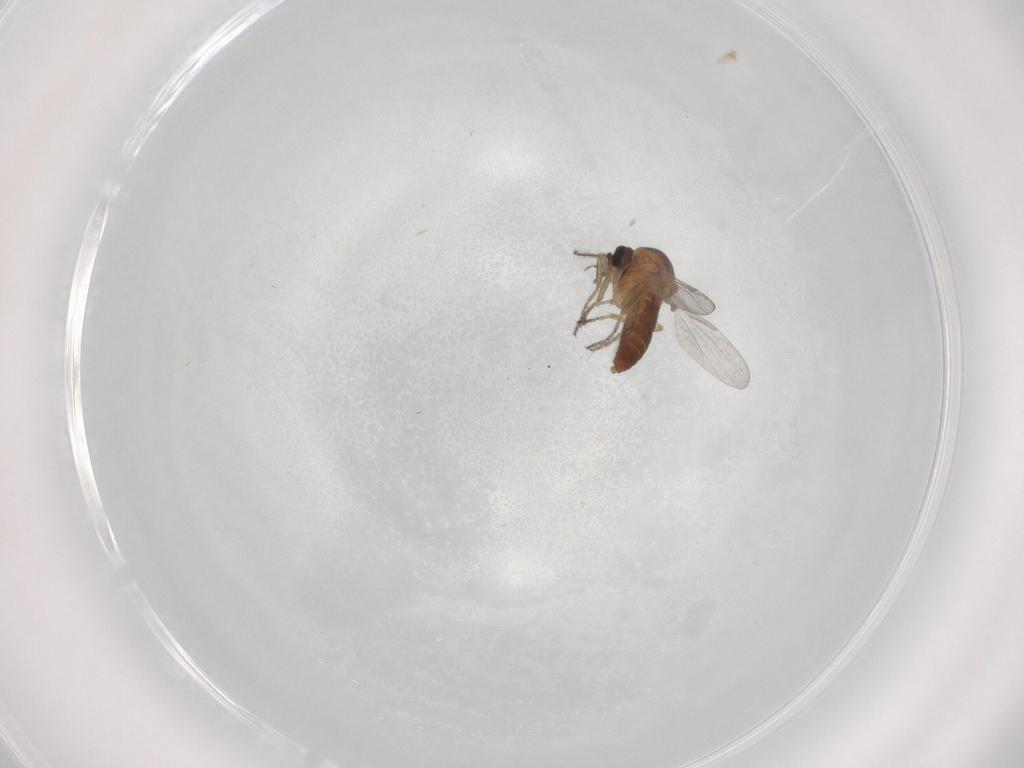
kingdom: Animalia
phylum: Arthropoda
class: Insecta
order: Diptera
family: Ceratopogonidae
